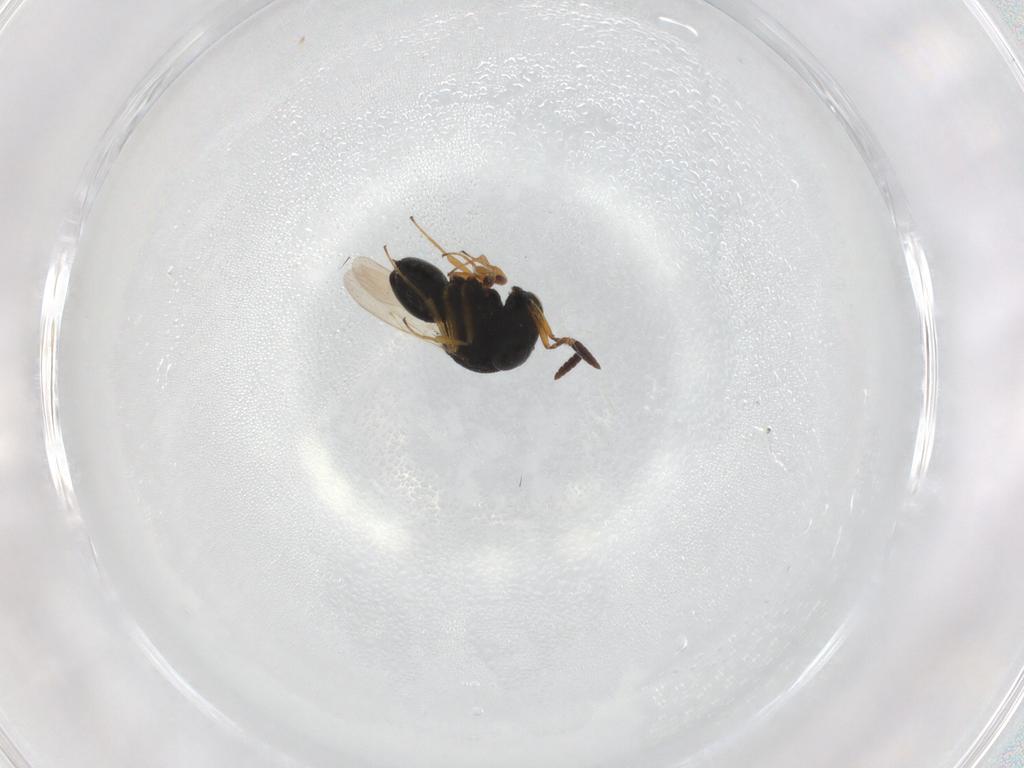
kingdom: Animalia
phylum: Arthropoda
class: Insecta
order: Hymenoptera
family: Scelionidae
